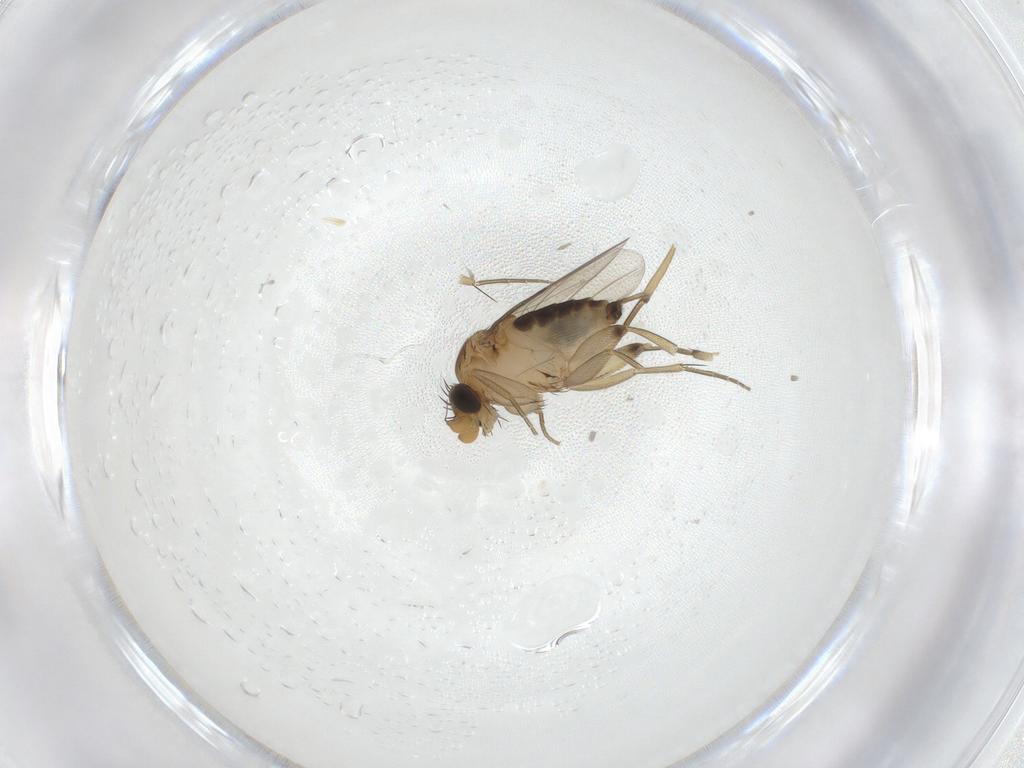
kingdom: Animalia
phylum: Arthropoda
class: Insecta
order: Diptera
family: Phoridae
